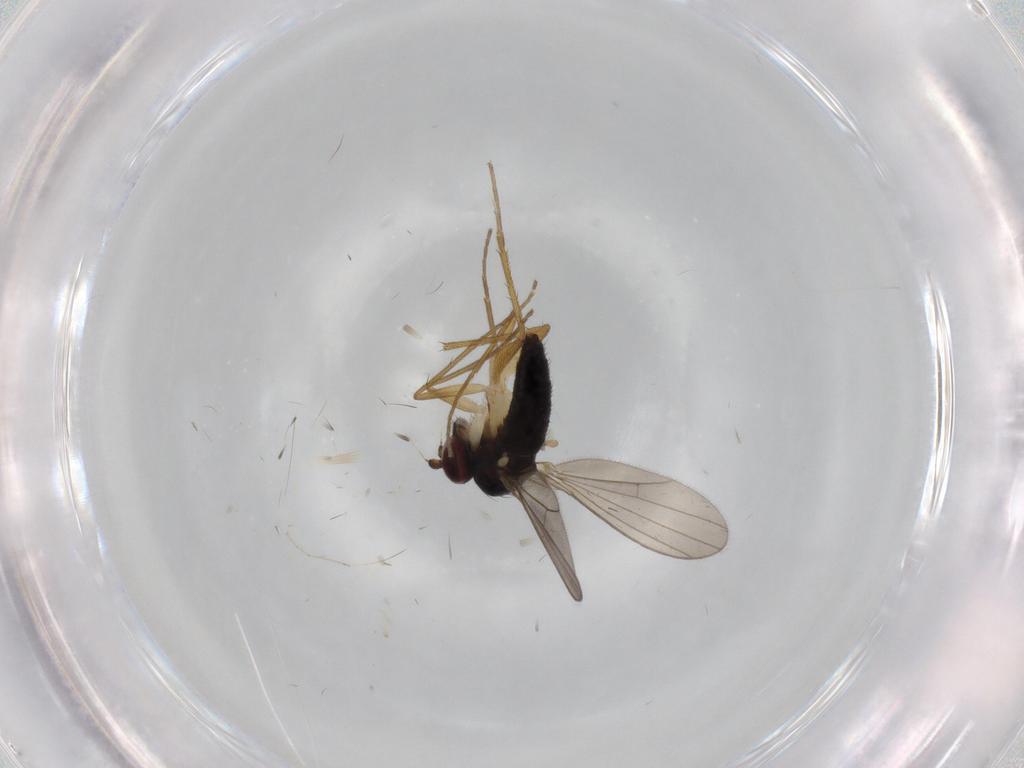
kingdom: Animalia
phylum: Arthropoda
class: Insecta
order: Diptera
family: Dolichopodidae
